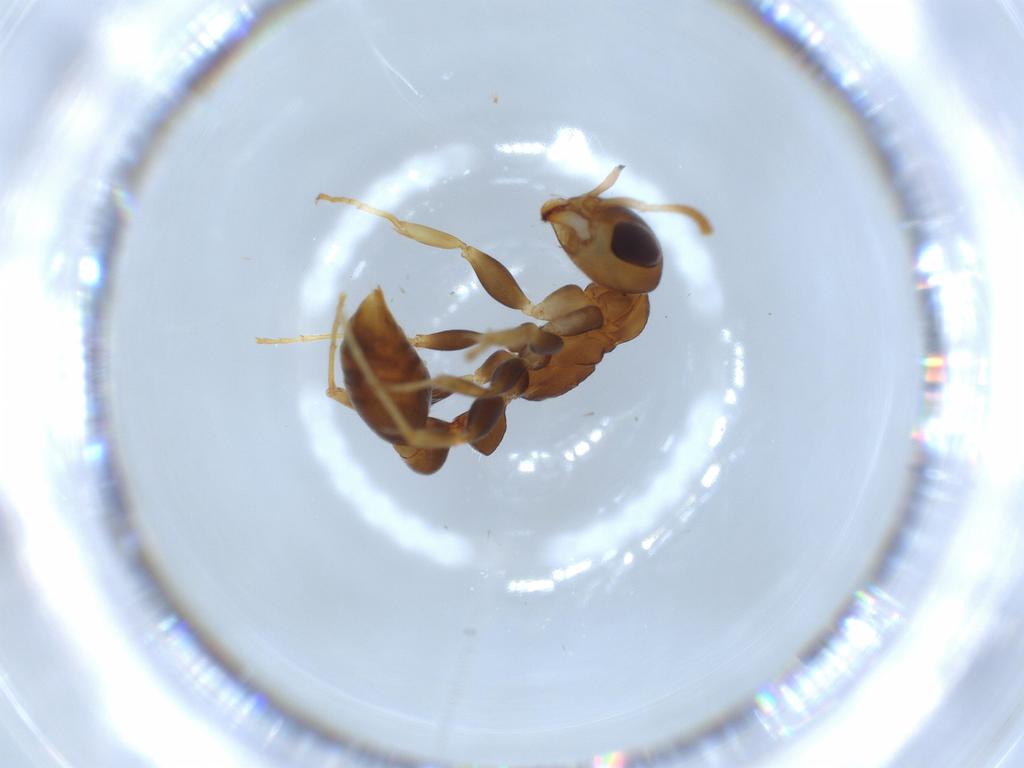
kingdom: Animalia
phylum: Arthropoda
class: Insecta
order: Hymenoptera
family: Formicidae
